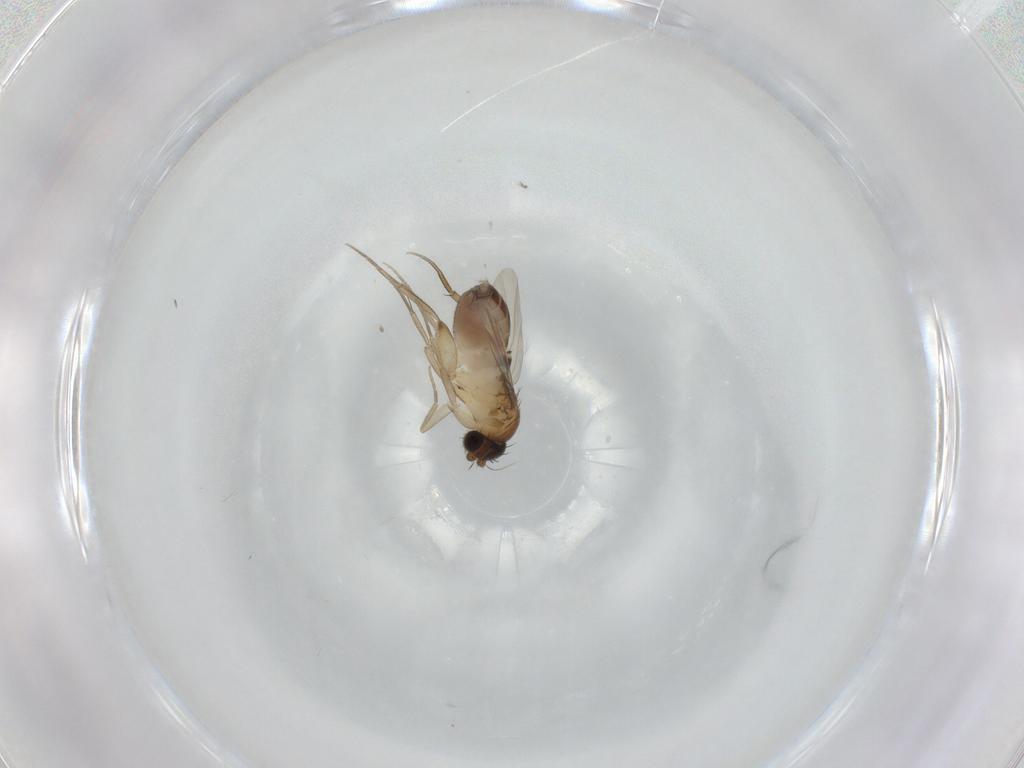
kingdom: Animalia
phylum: Arthropoda
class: Insecta
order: Diptera
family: Phoridae
